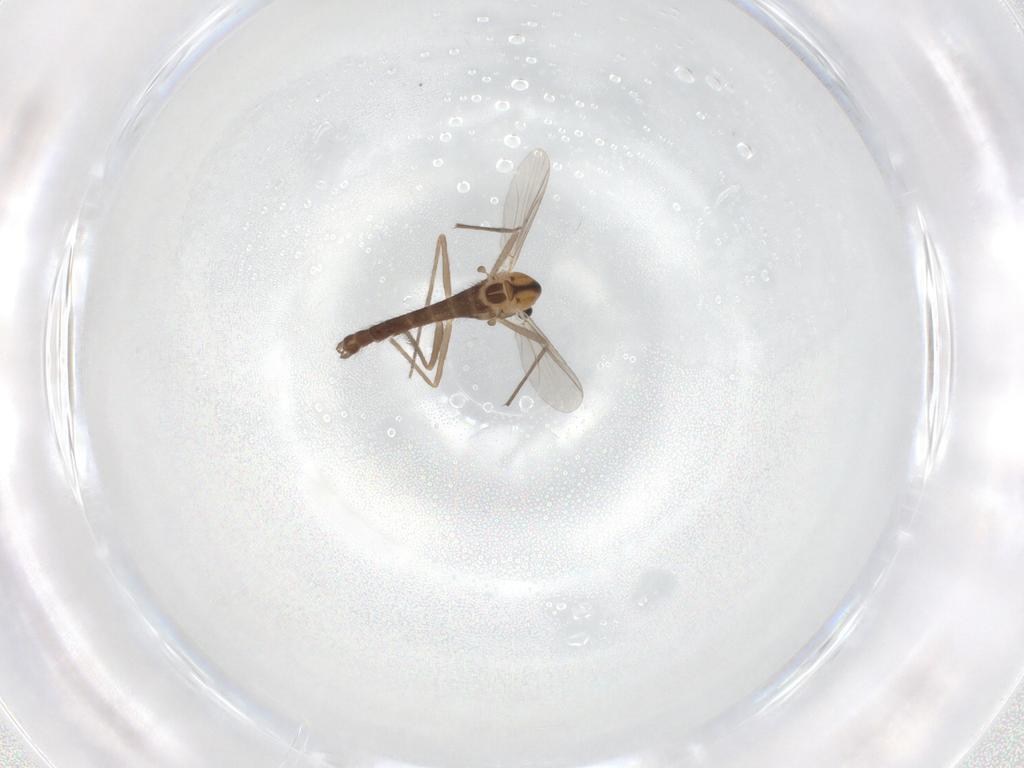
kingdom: Animalia
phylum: Arthropoda
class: Insecta
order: Diptera
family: Chironomidae
